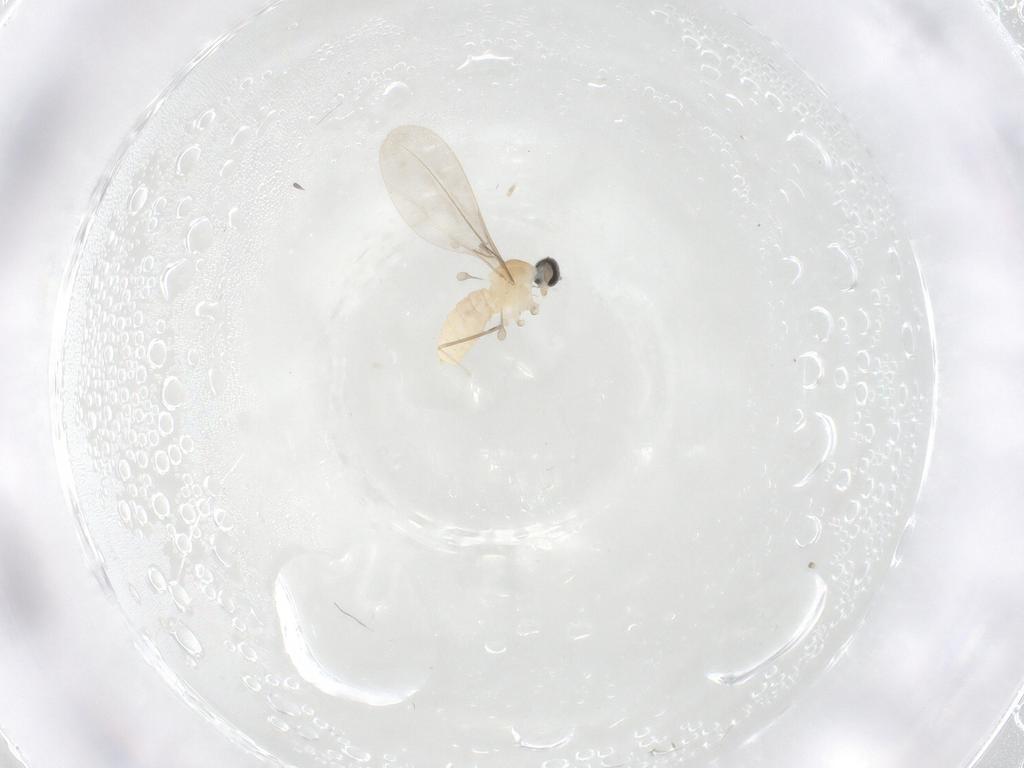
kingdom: Animalia
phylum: Arthropoda
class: Insecta
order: Diptera
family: Cecidomyiidae
